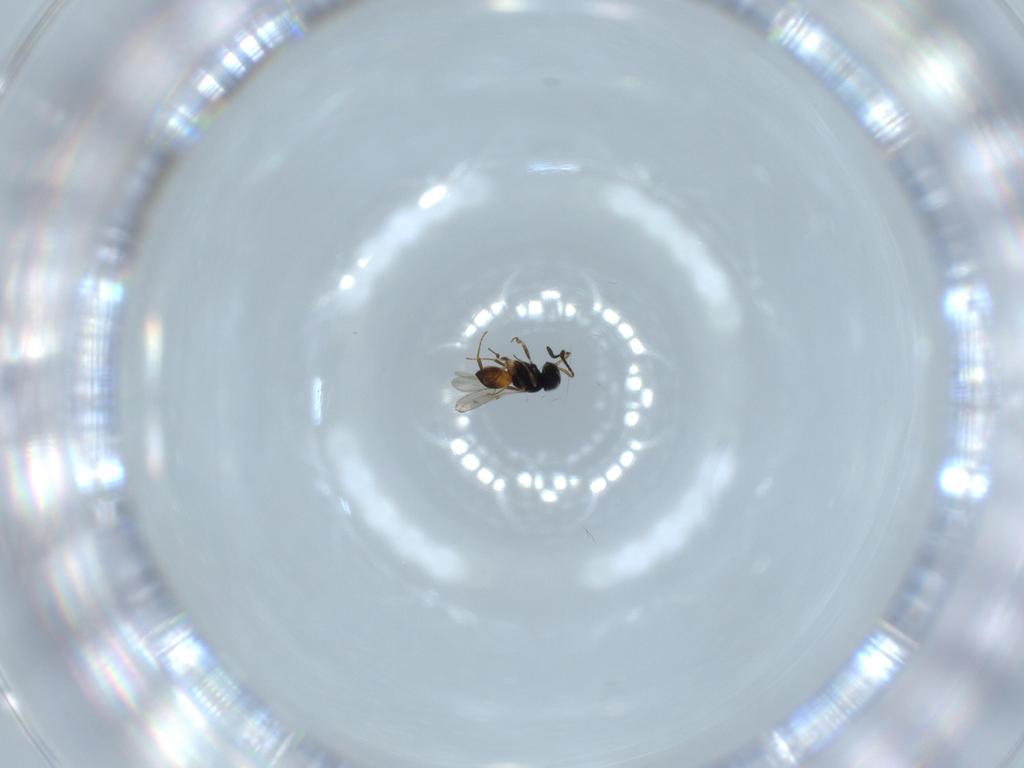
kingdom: Animalia
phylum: Arthropoda
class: Insecta
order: Hymenoptera
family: Scelionidae
